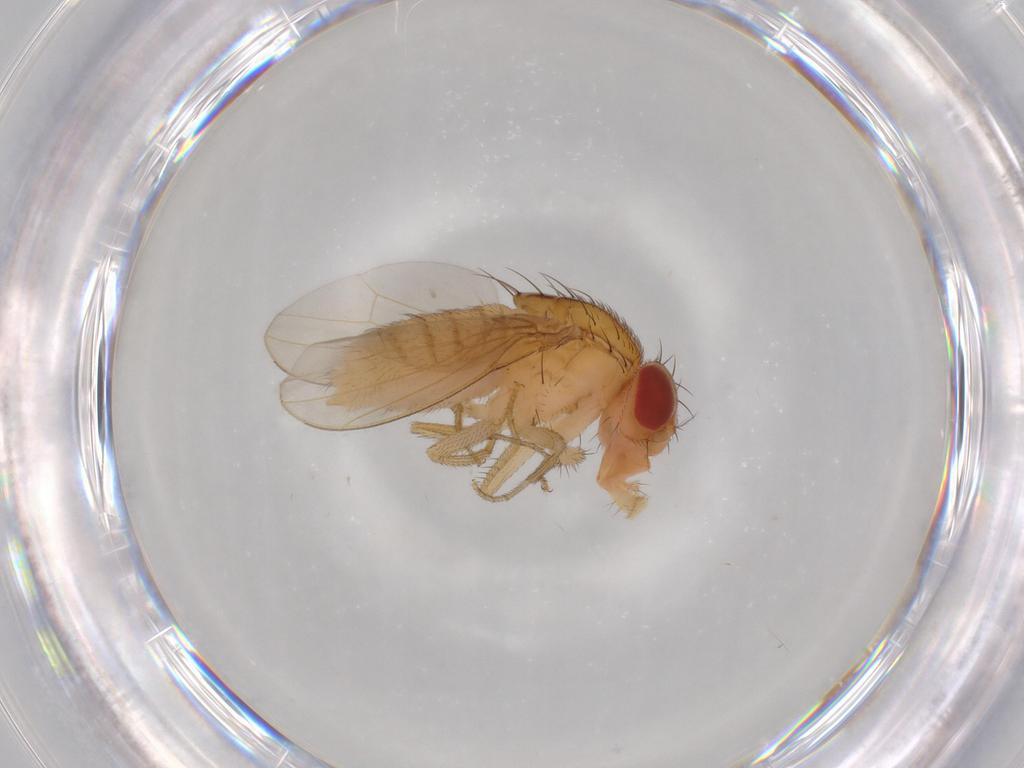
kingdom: Animalia
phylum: Arthropoda
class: Insecta
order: Diptera
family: Drosophilidae
